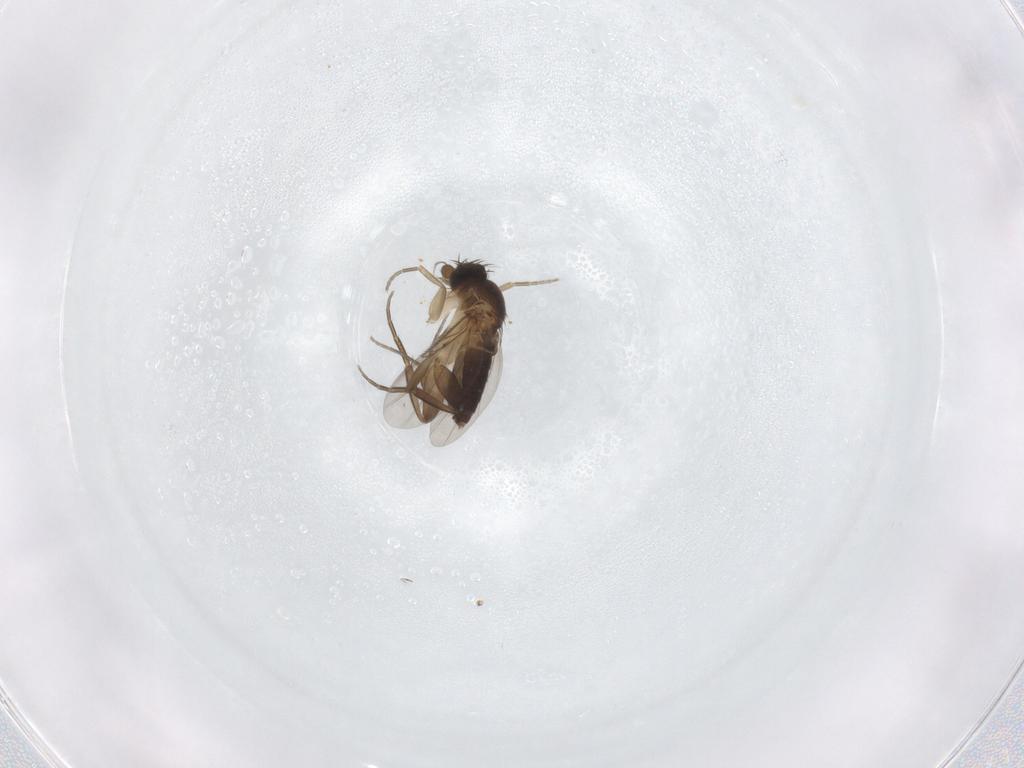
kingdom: Animalia
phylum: Arthropoda
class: Insecta
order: Diptera
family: Phoridae
